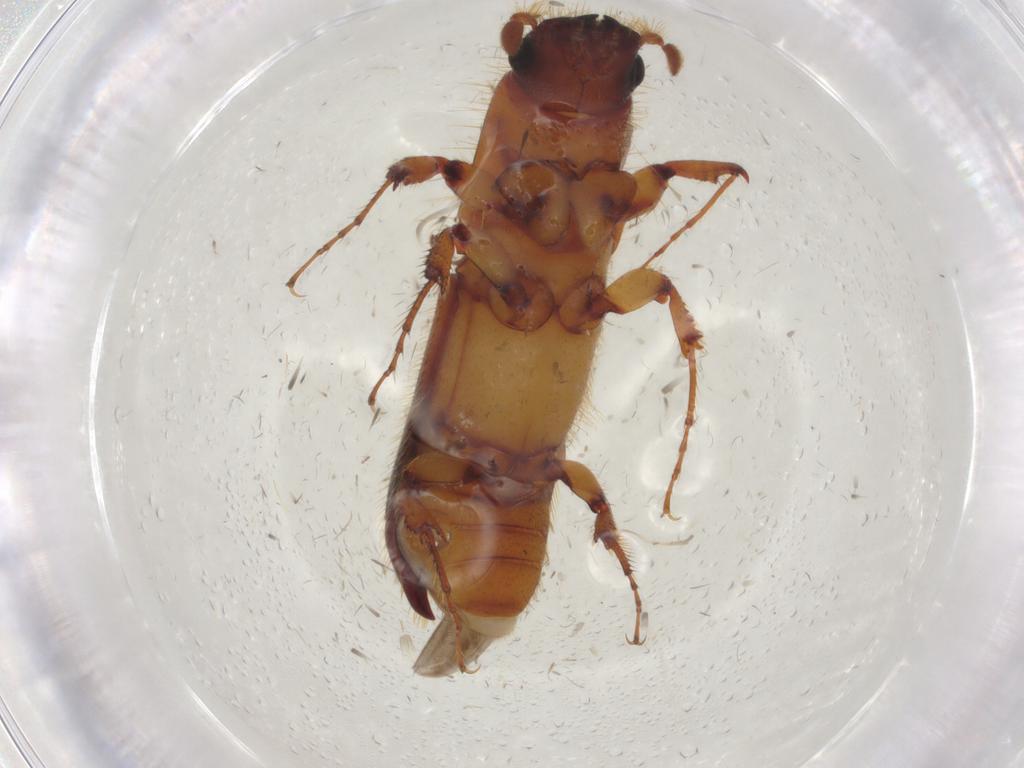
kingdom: Animalia
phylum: Arthropoda
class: Insecta
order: Coleoptera
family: Curculionidae
